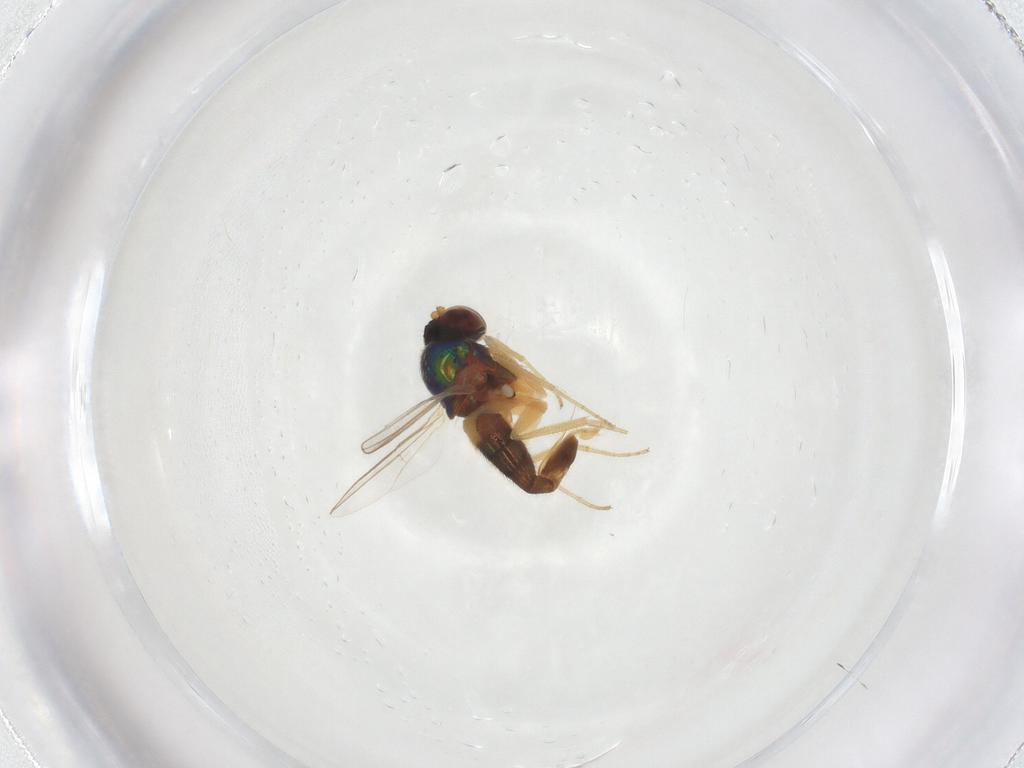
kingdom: Animalia
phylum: Arthropoda
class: Insecta
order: Diptera
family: Dolichopodidae
